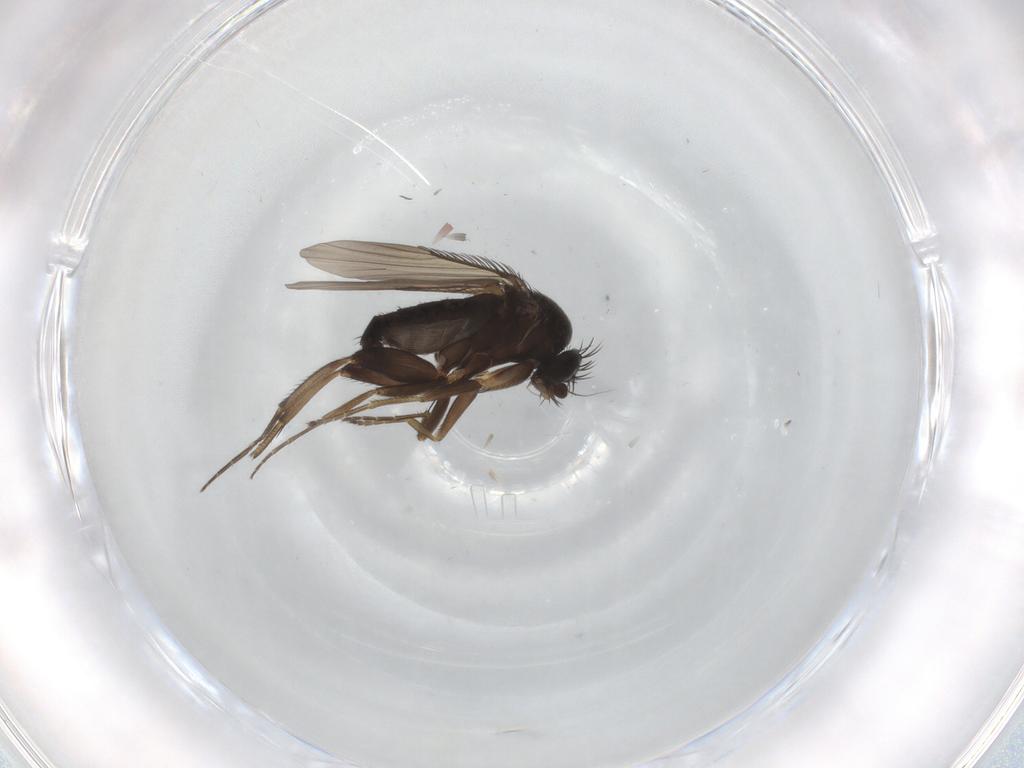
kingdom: Animalia
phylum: Arthropoda
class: Insecta
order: Diptera
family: Phoridae
